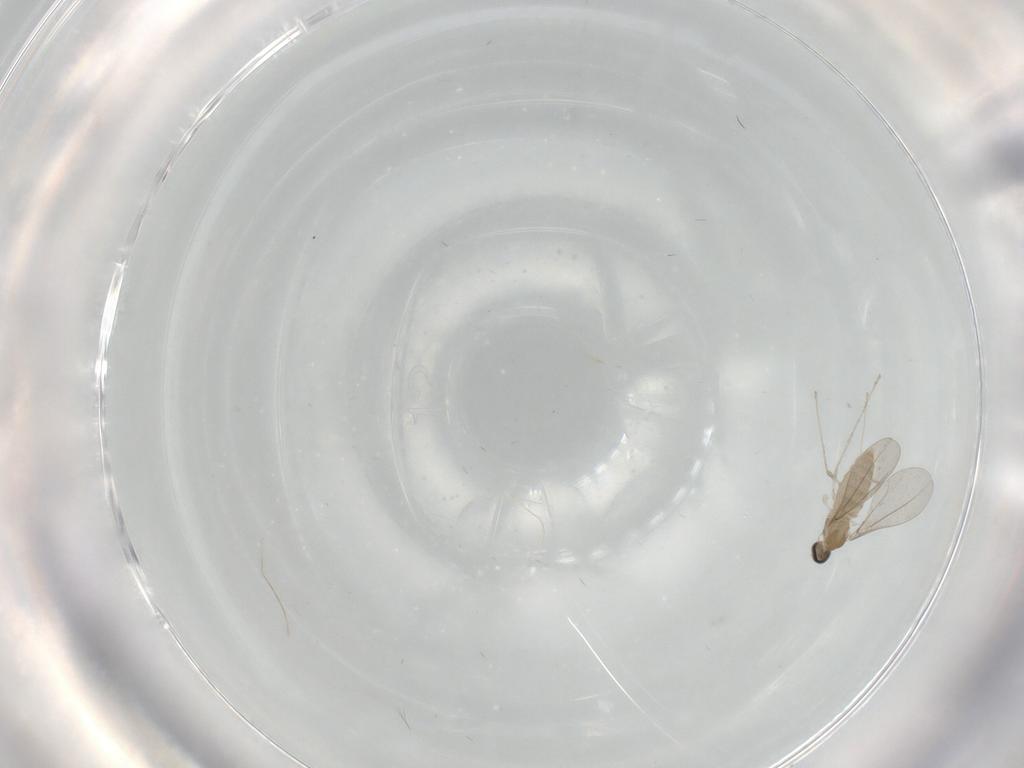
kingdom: Animalia
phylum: Arthropoda
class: Insecta
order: Diptera
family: Cecidomyiidae
